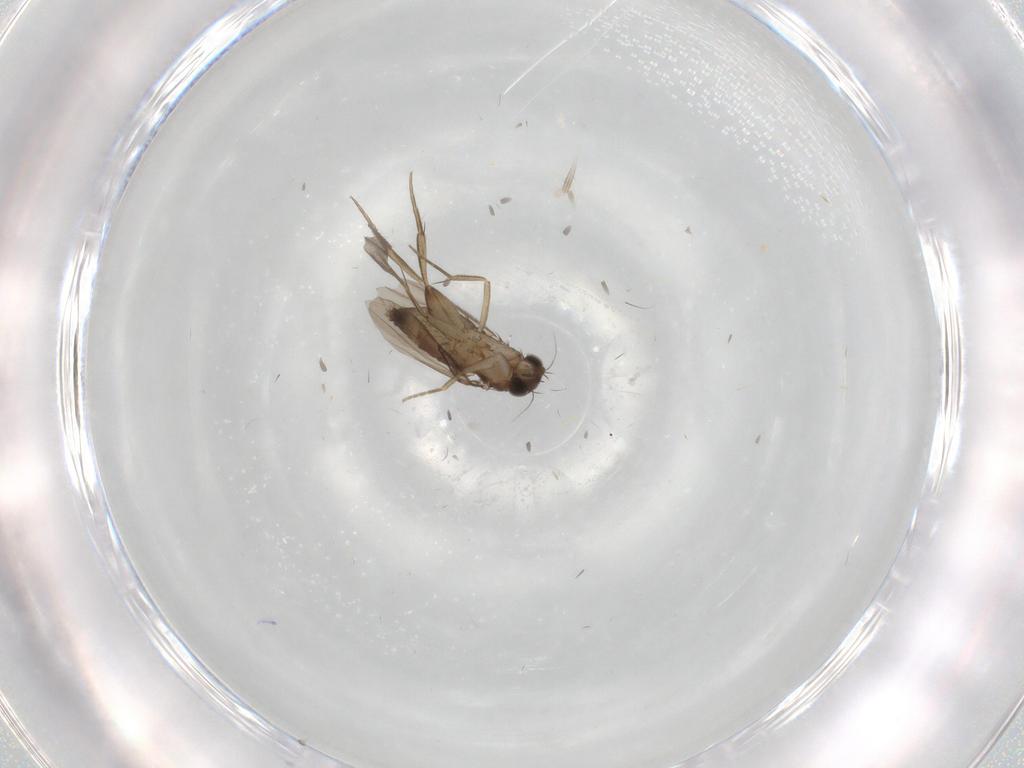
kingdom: Animalia
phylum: Arthropoda
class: Insecta
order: Diptera
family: Phoridae
